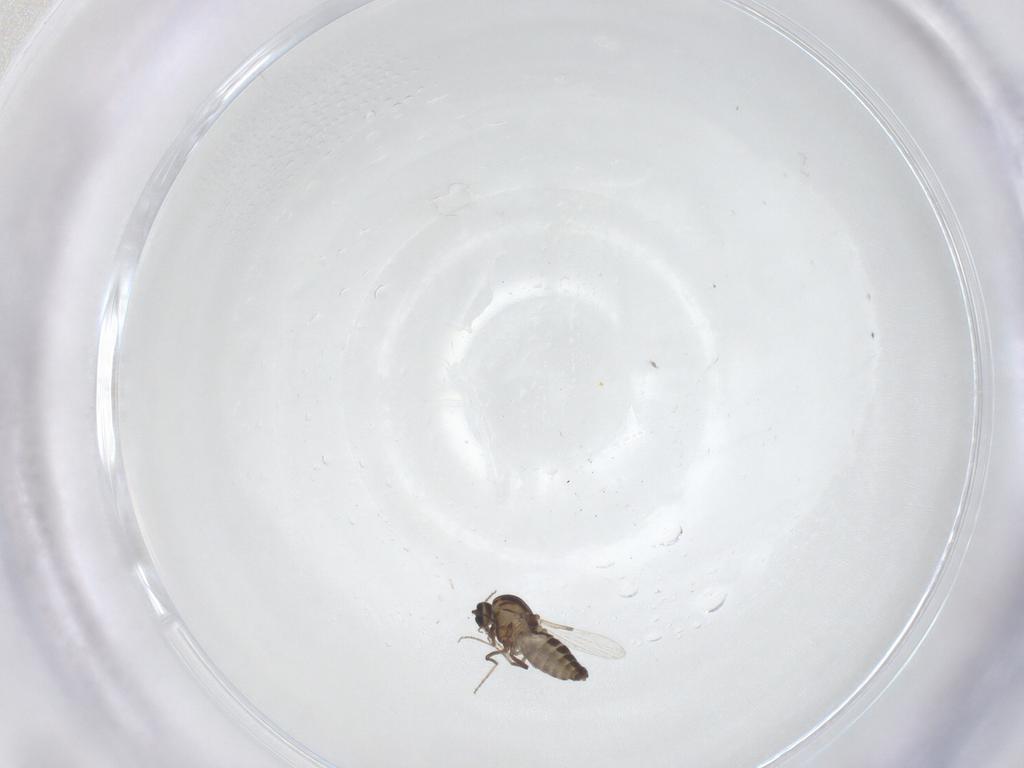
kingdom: Animalia
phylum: Arthropoda
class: Insecta
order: Diptera
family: Ceratopogonidae
